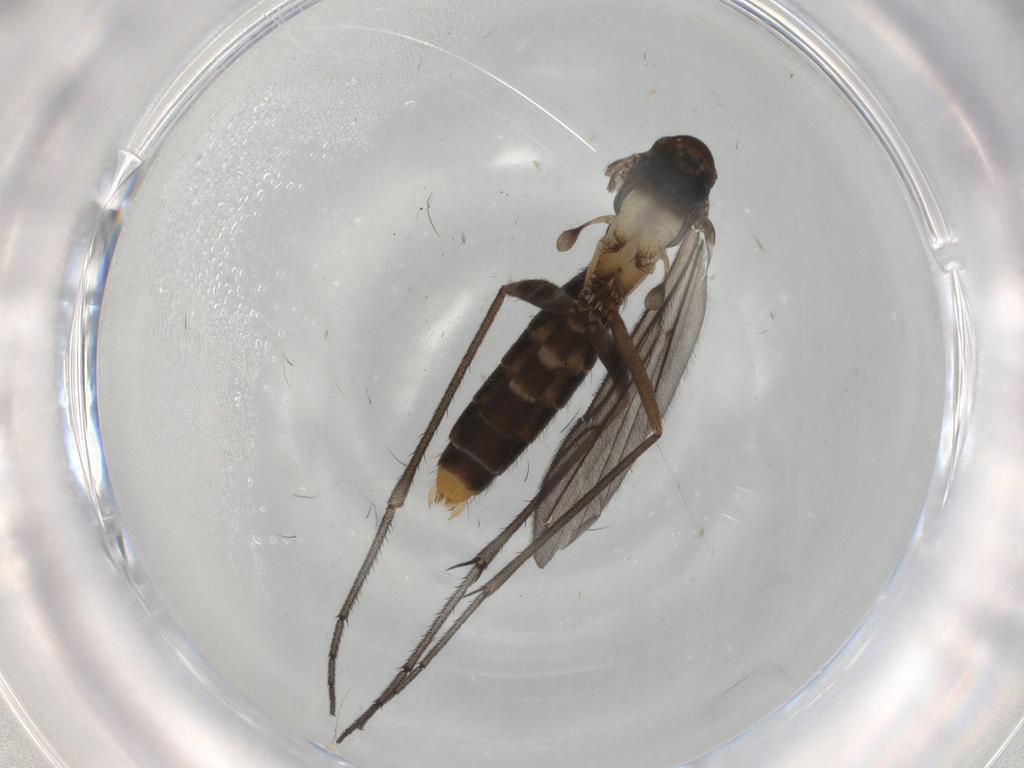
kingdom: Animalia
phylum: Arthropoda
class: Insecta
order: Diptera
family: Ditomyiidae
